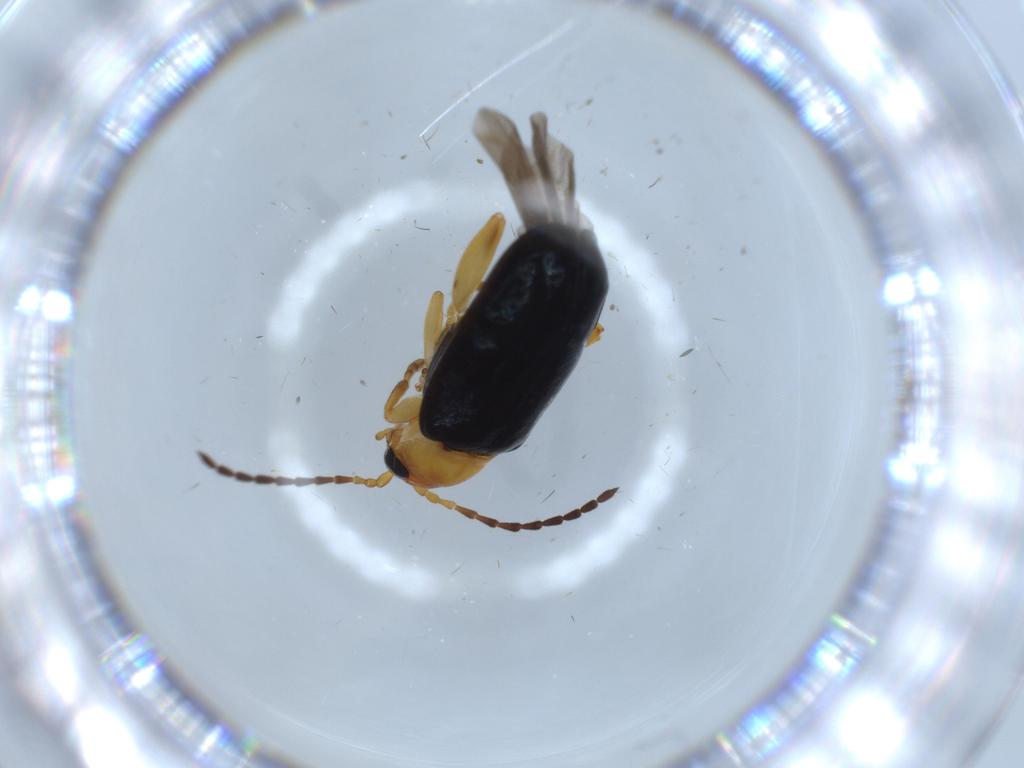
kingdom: Animalia
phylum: Arthropoda
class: Insecta
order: Coleoptera
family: Chrysomelidae
